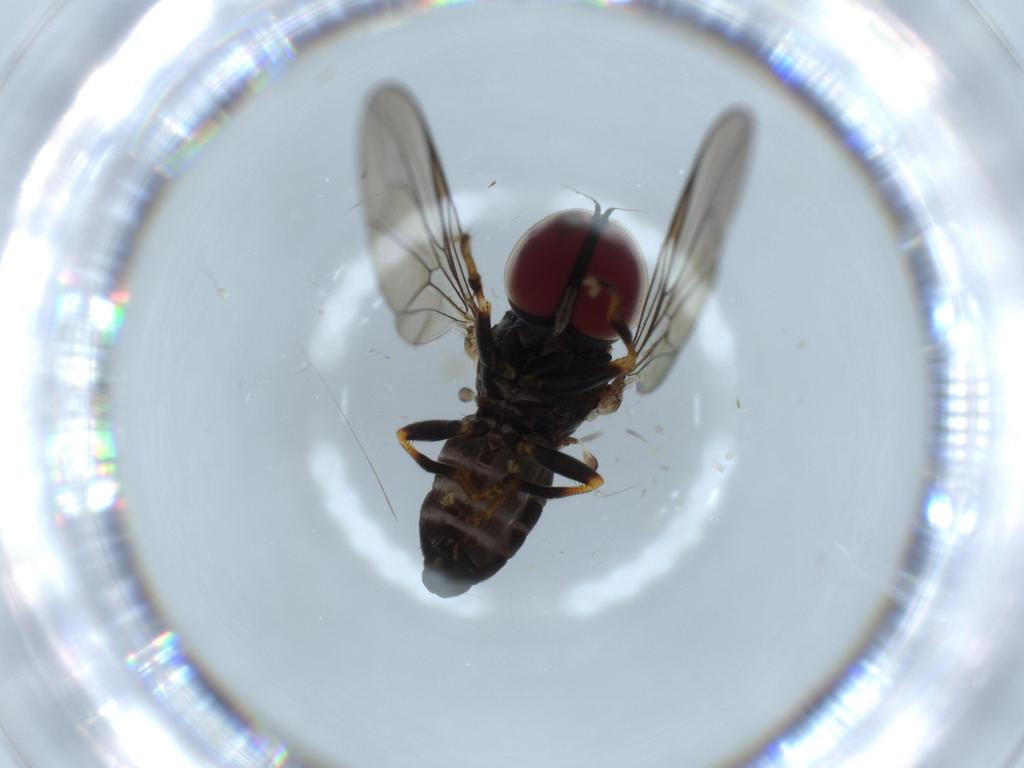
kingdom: Animalia
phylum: Arthropoda
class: Insecta
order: Diptera
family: Pipunculidae
